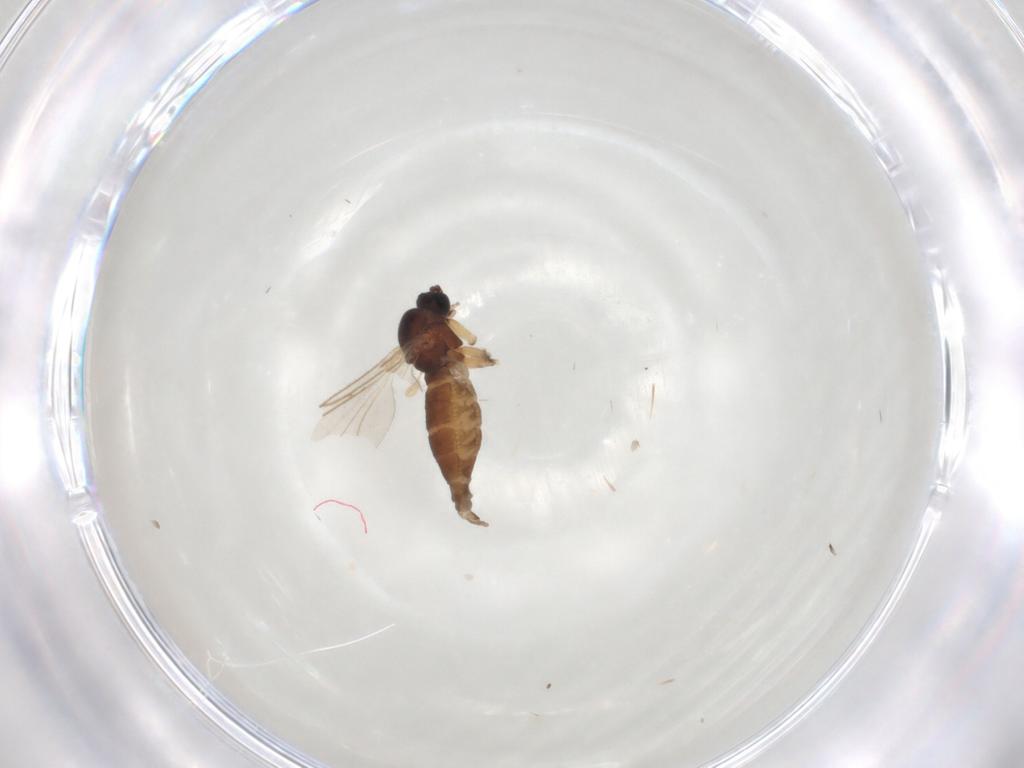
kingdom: Animalia
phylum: Arthropoda
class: Insecta
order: Diptera
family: Sciaridae
